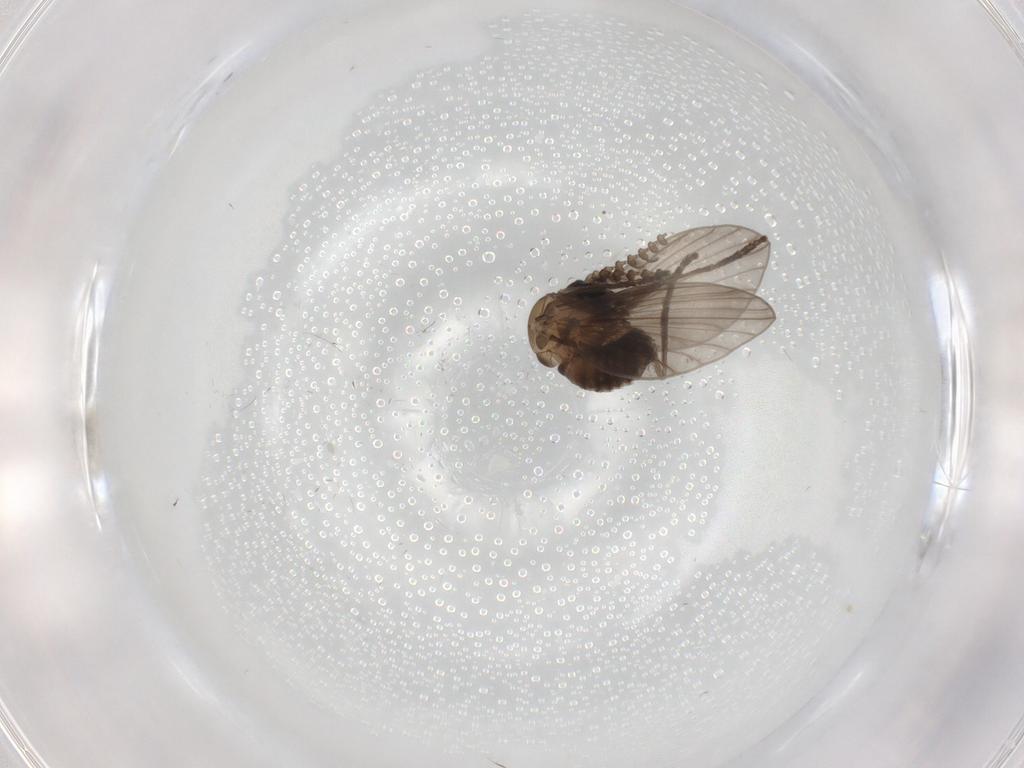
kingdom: Animalia
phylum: Arthropoda
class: Insecta
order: Diptera
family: Psychodidae
